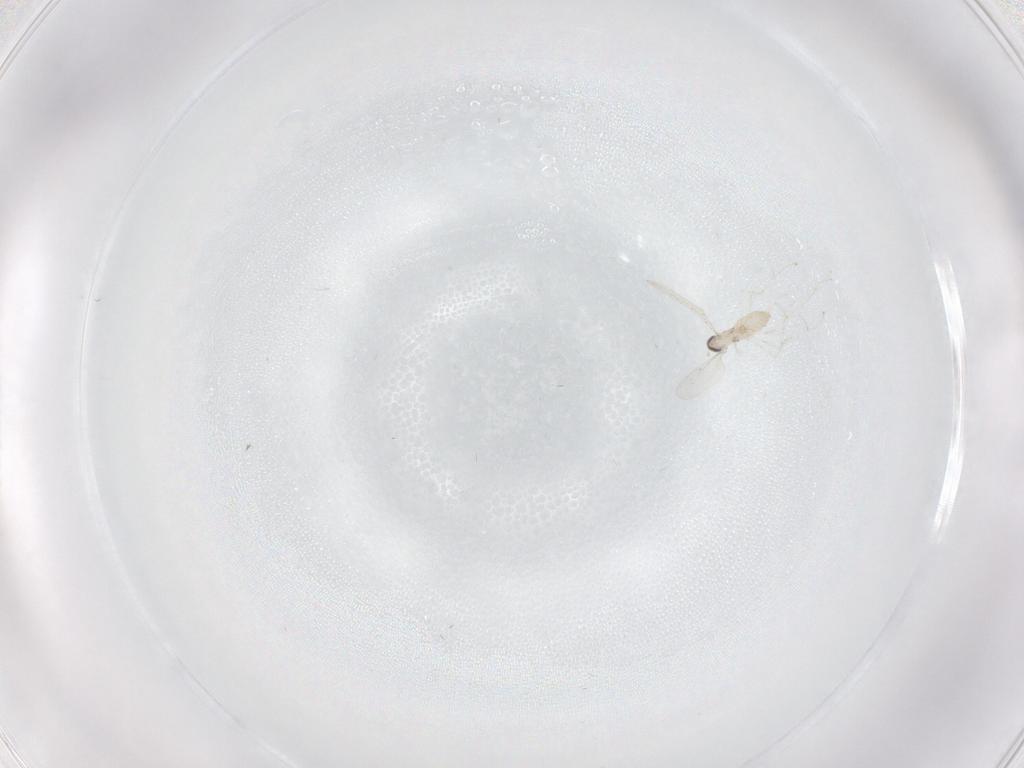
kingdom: Animalia
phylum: Arthropoda
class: Insecta
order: Diptera
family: Cecidomyiidae
